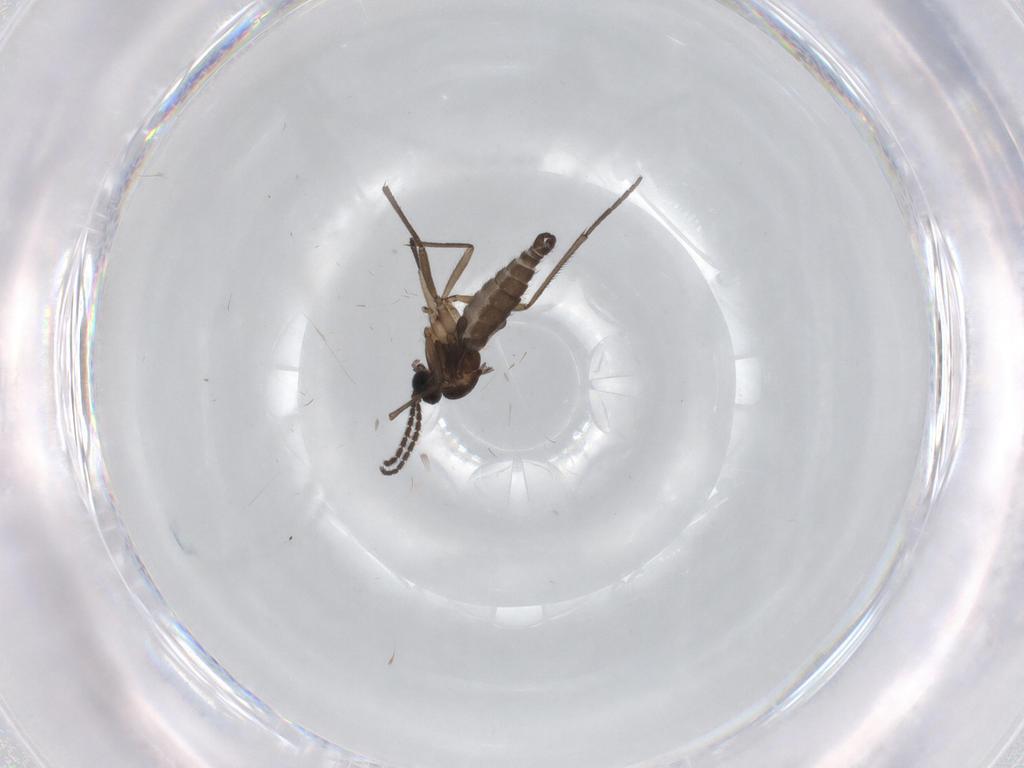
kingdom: Animalia
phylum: Arthropoda
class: Insecta
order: Diptera
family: Sciaridae
